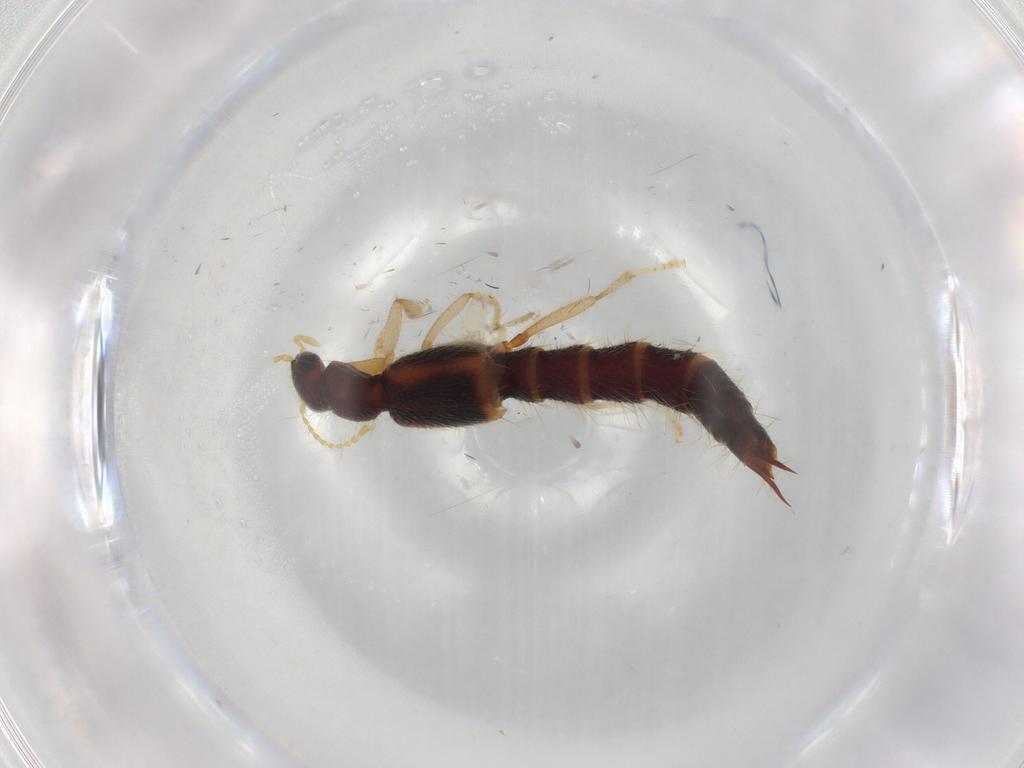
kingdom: Animalia
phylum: Arthropoda
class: Insecta
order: Coleoptera
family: Staphylinidae
